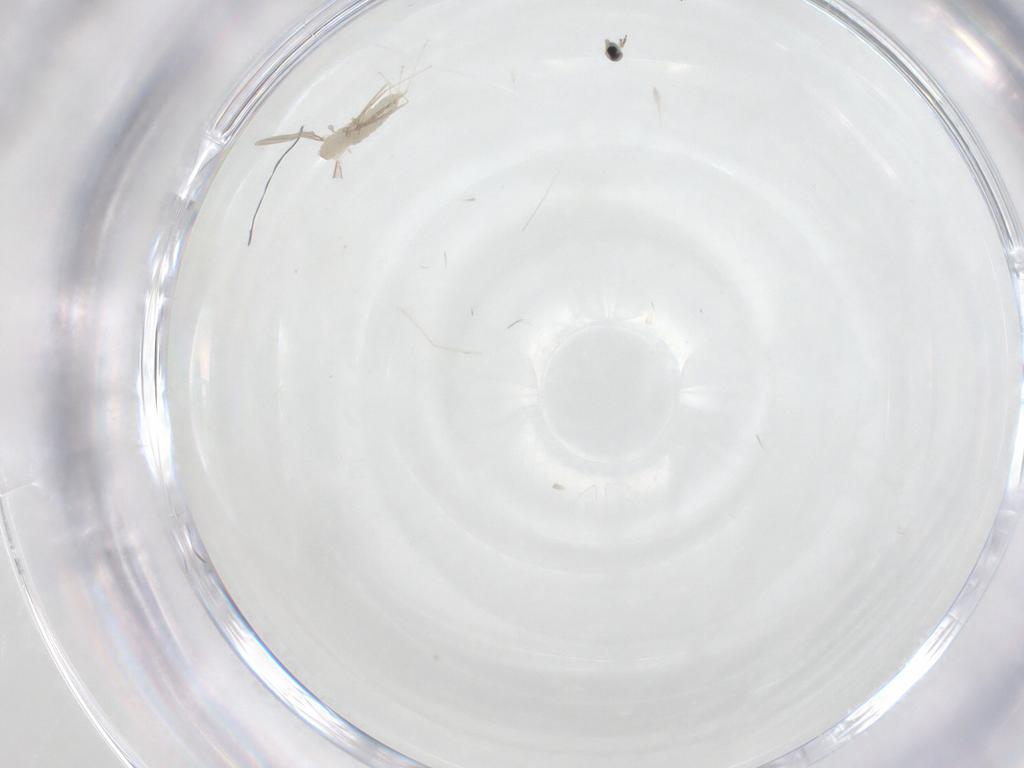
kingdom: Animalia
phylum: Arthropoda
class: Insecta
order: Diptera
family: Cecidomyiidae
